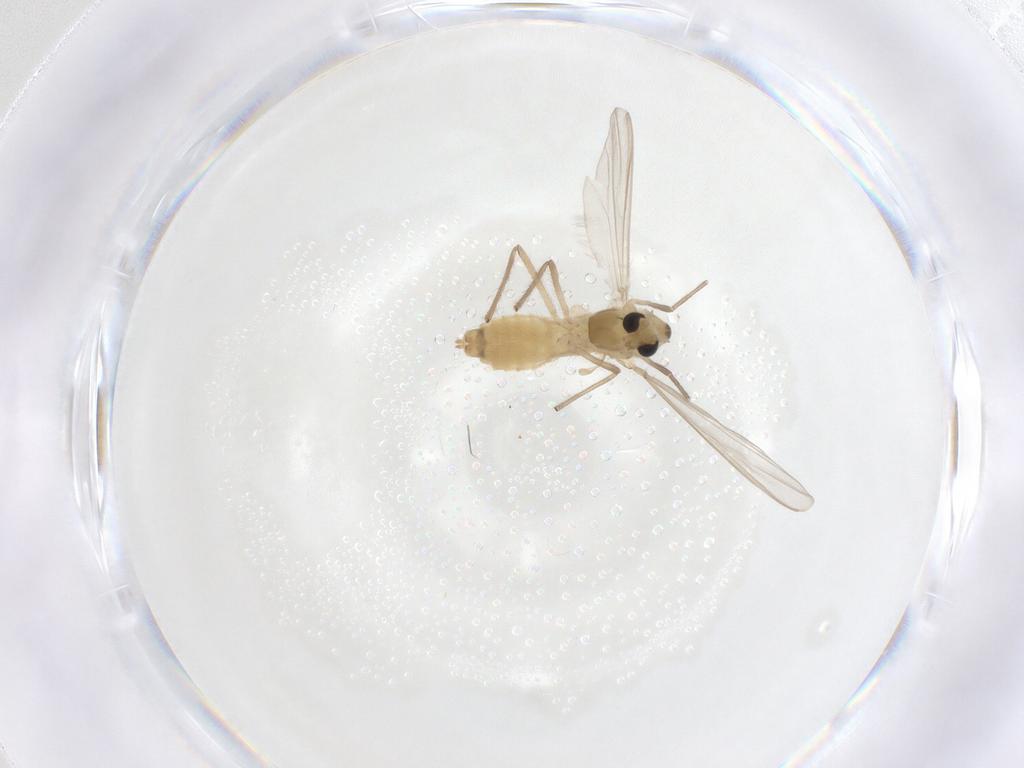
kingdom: Animalia
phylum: Arthropoda
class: Insecta
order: Diptera
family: Chironomidae
